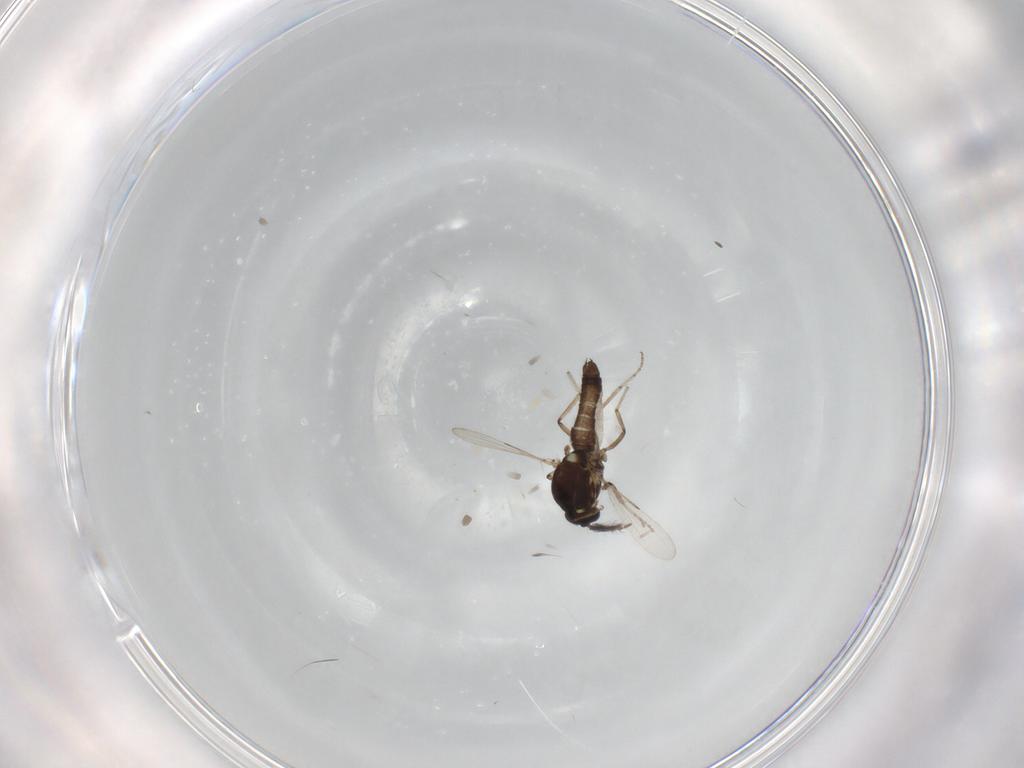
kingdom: Animalia
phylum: Arthropoda
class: Insecta
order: Diptera
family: Ceratopogonidae
